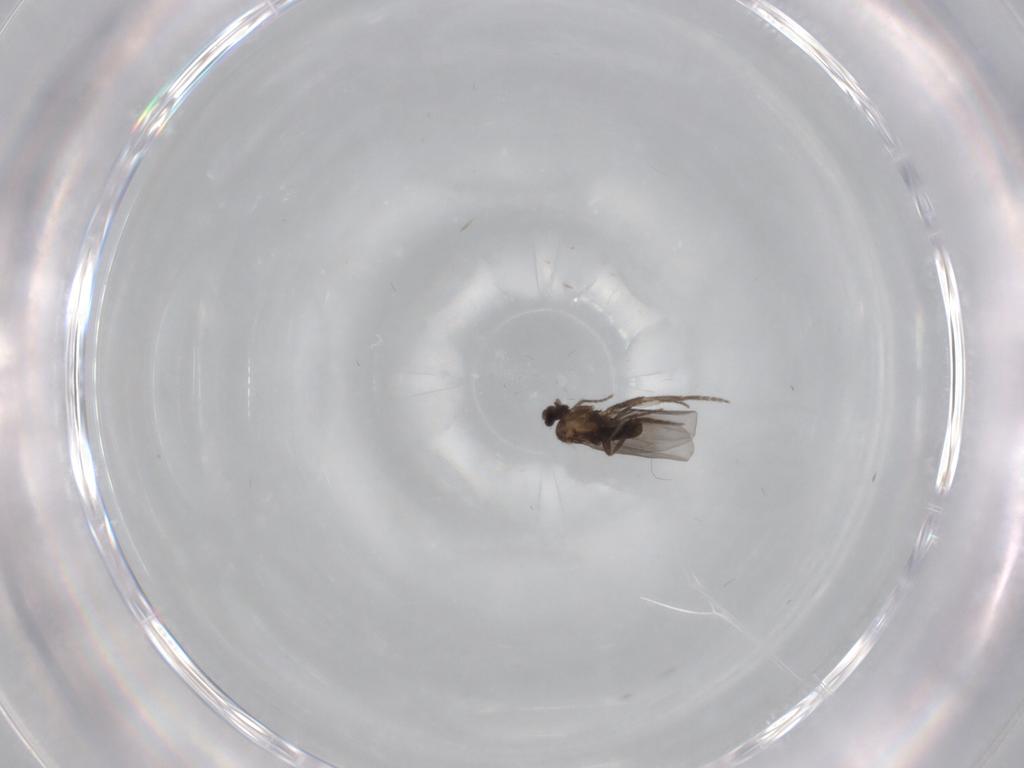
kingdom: Animalia
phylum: Arthropoda
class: Insecta
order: Diptera
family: Phoridae
